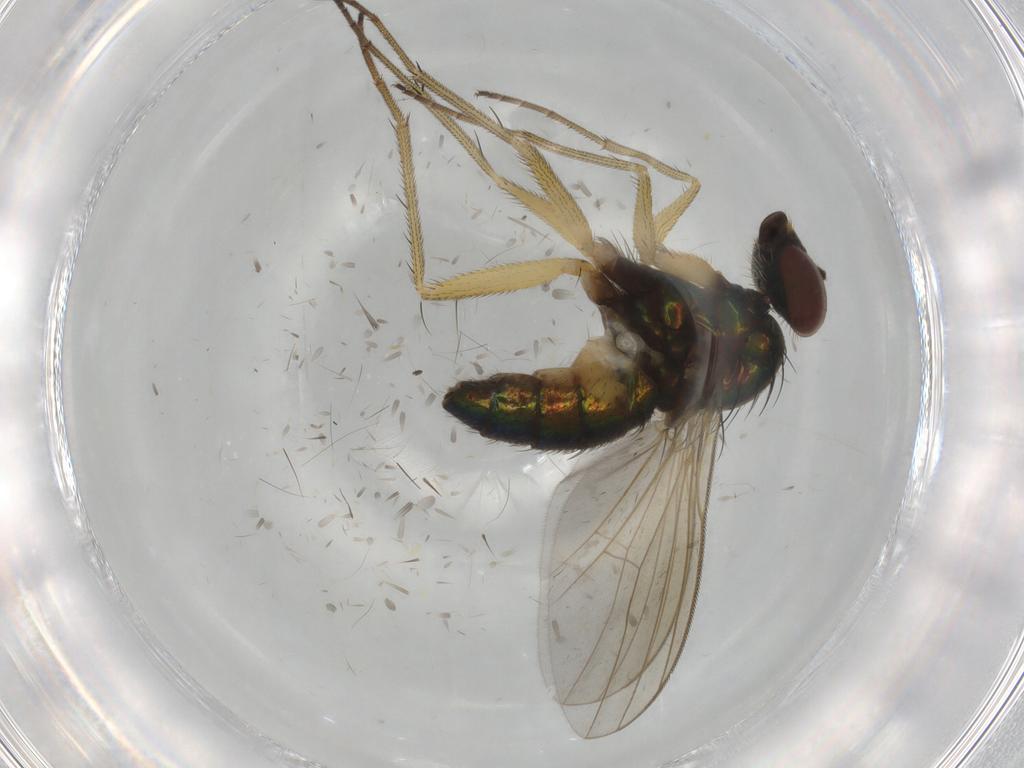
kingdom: Animalia
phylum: Arthropoda
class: Insecta
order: Diptera
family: Dolichopodidae
